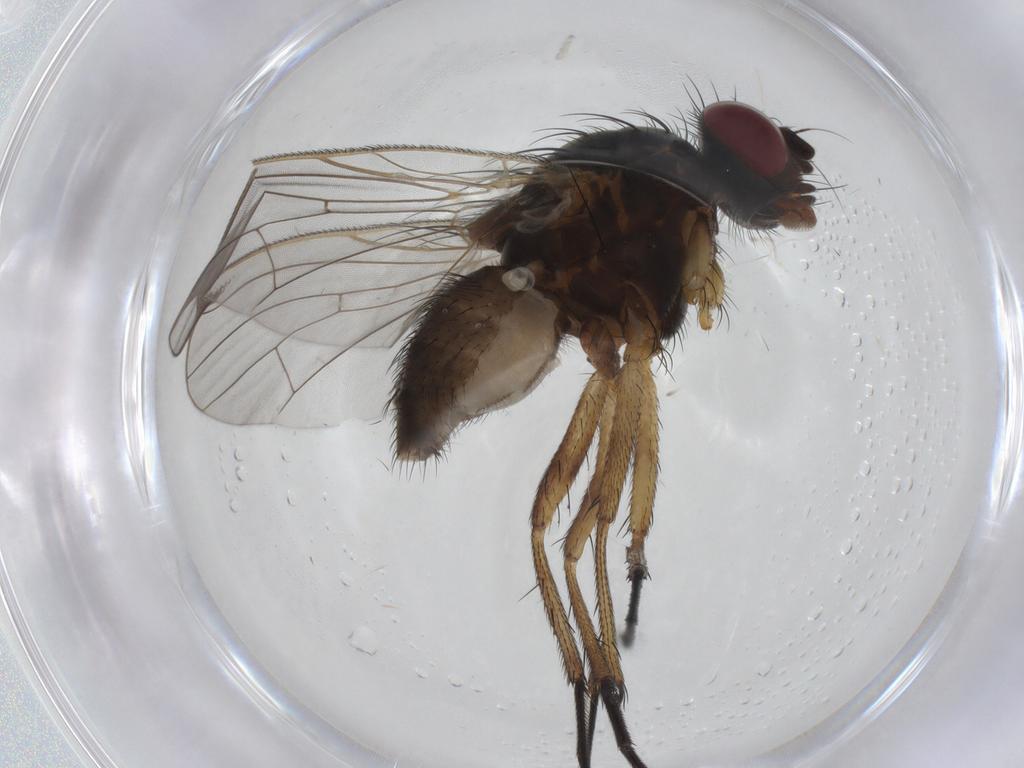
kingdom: Animalia
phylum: Arthropoda
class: Insecta
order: Diptera
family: Anthomyiidae
